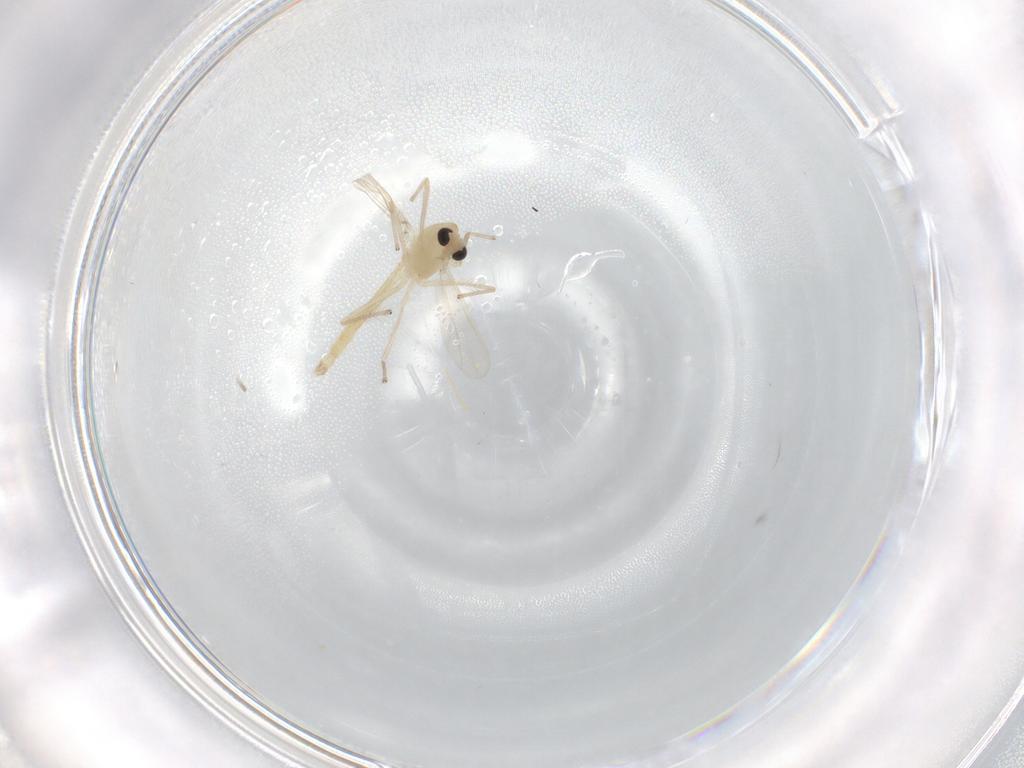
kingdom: Animalia
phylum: Arthropoda
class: Insecta
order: Diptera
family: Chironomidae
